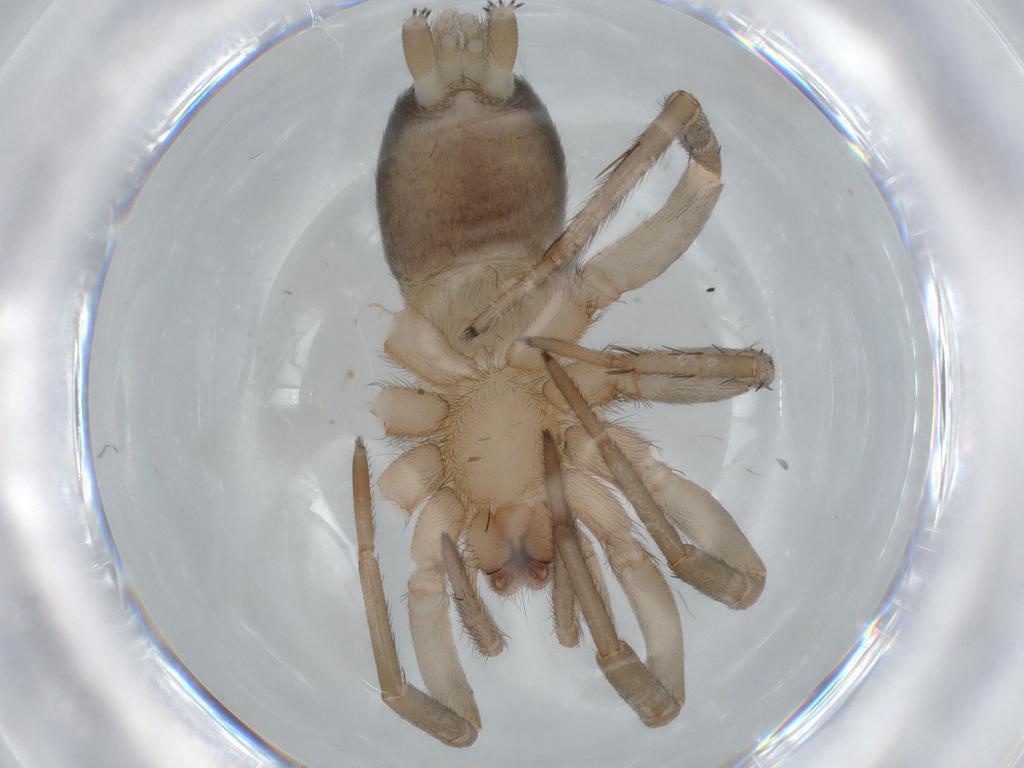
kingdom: Animalia
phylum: Arthropoda
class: Arachnida
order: Araneae
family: Gnaphosidae
